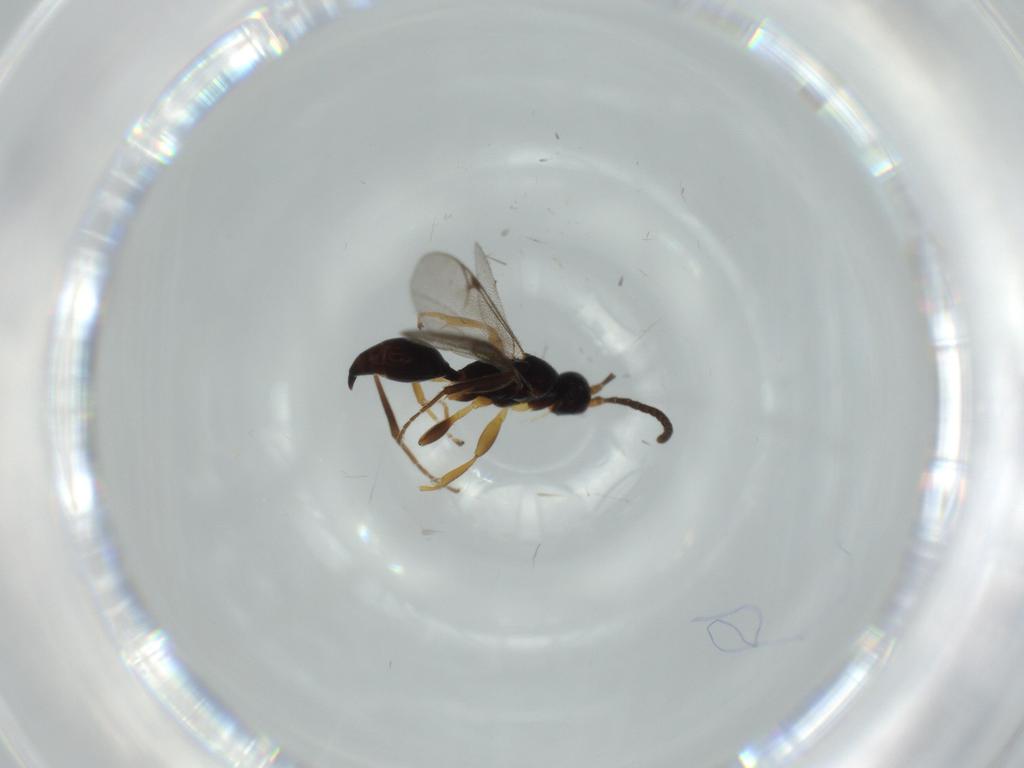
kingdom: Animalia
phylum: Arthropoda
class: Insecta
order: Hymenoptera
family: Proctotrupidae
